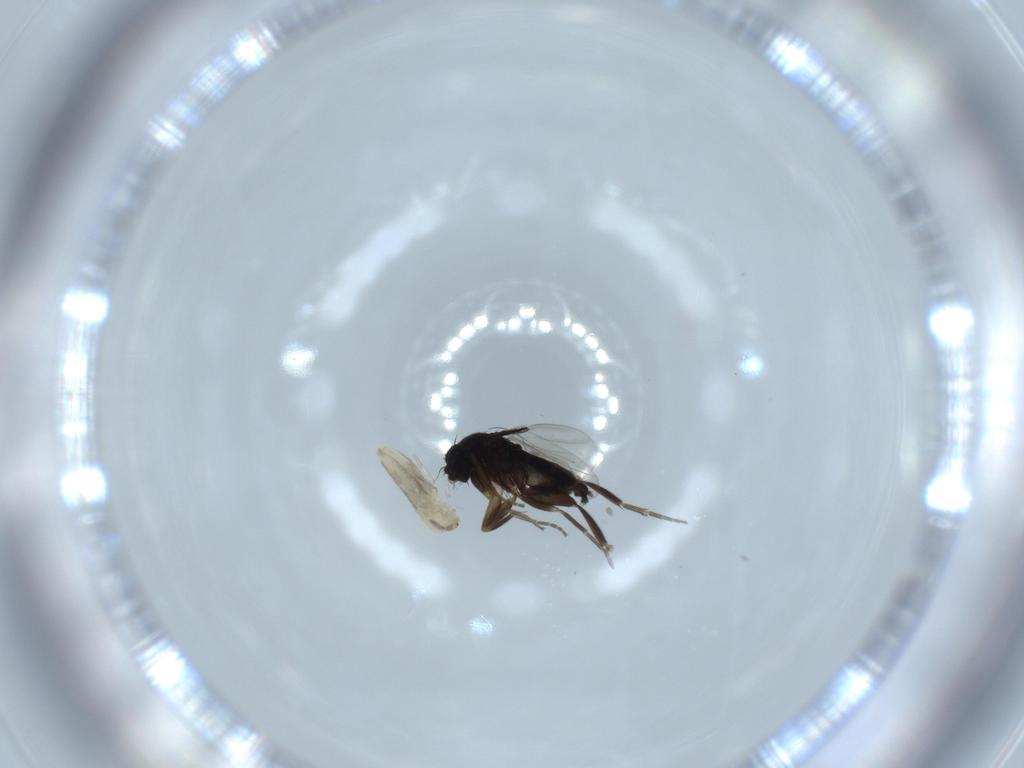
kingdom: Animalia
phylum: Arthropoda
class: Insecta
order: Diptera
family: Phoridae
